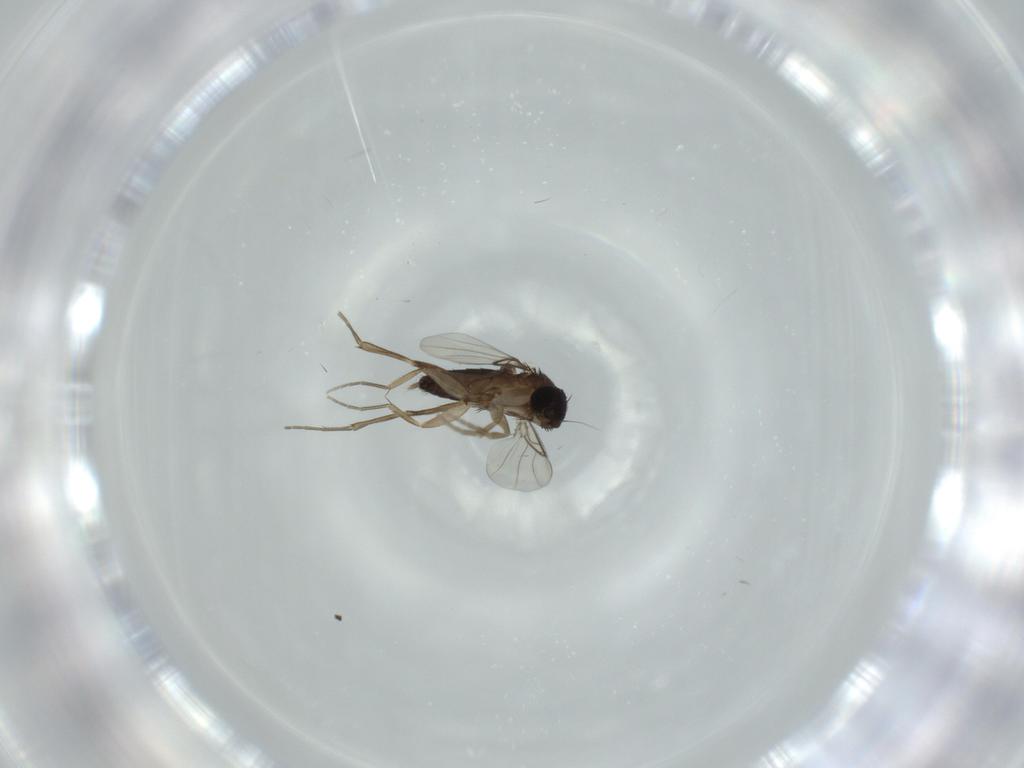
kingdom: Animalia
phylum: Arthropoda
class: Insecta
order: Diptera
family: Phoridae
